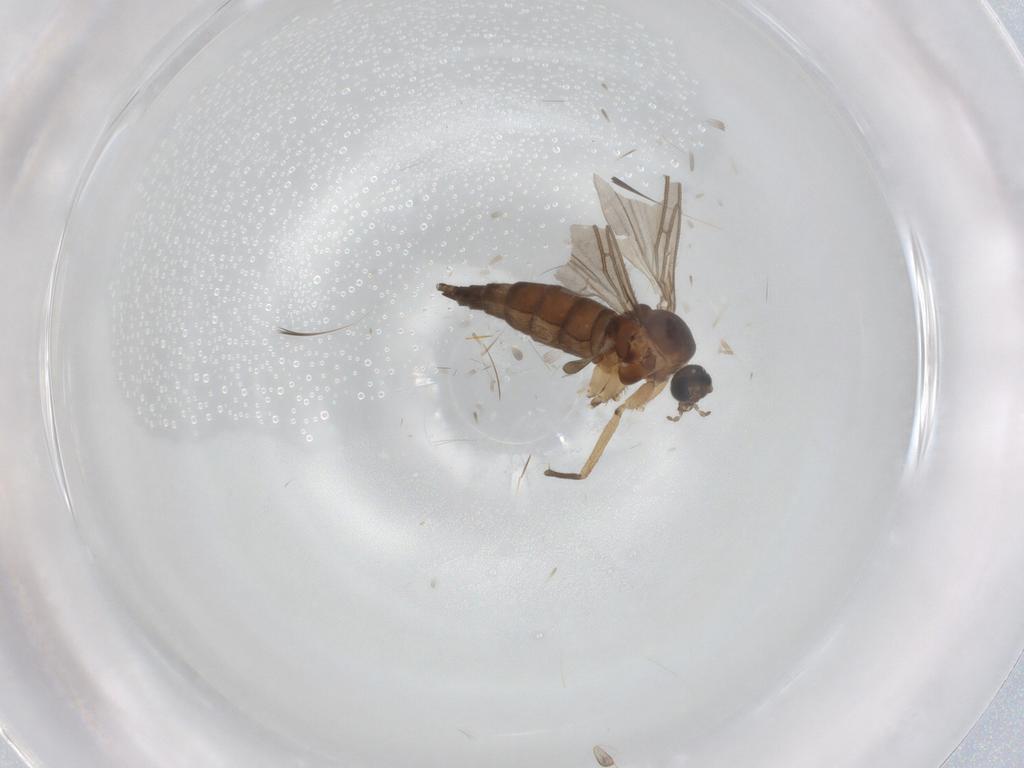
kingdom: Animalia
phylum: Arthropoda
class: Insecta
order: Diptera
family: Sciaridae
